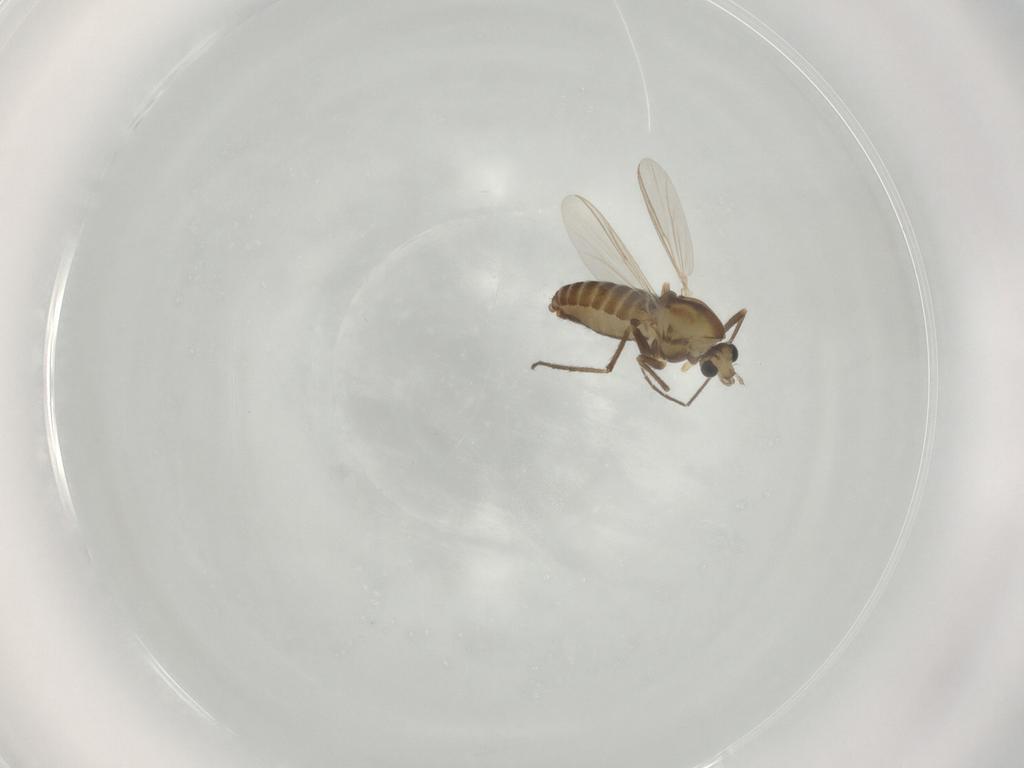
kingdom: Animalia
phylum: Arthropoda
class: Insecta
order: Diptera
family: Chironomidae
